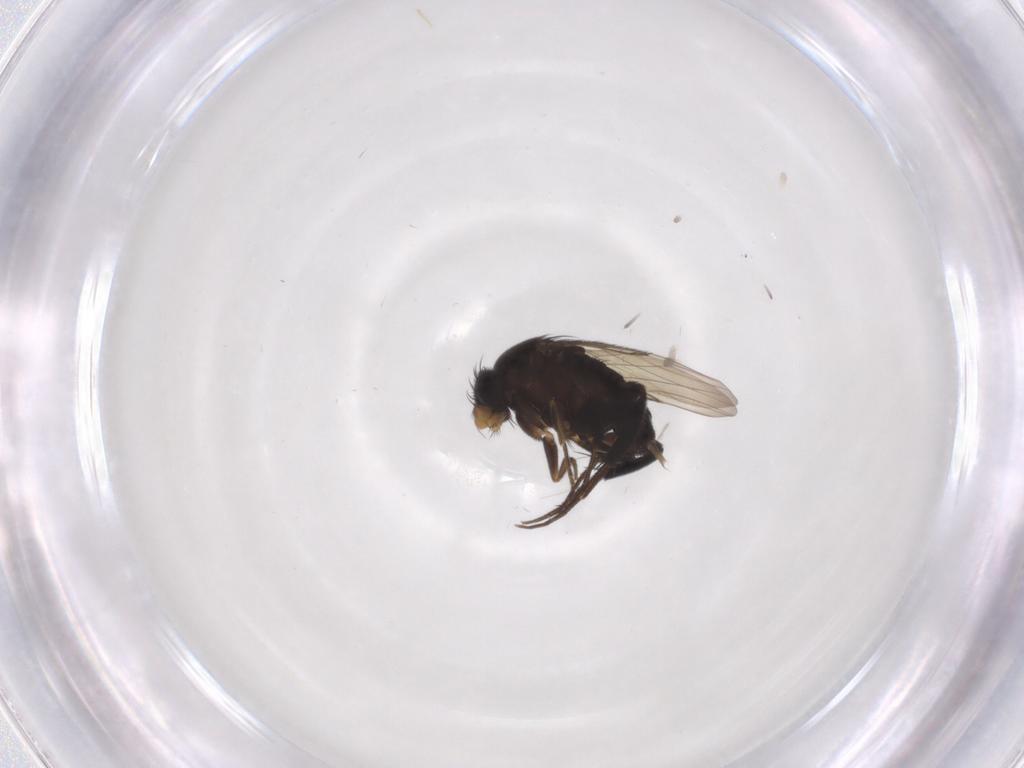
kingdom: Animalia
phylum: Arthropoda
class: Insecta
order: Diptera
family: Phoridae
